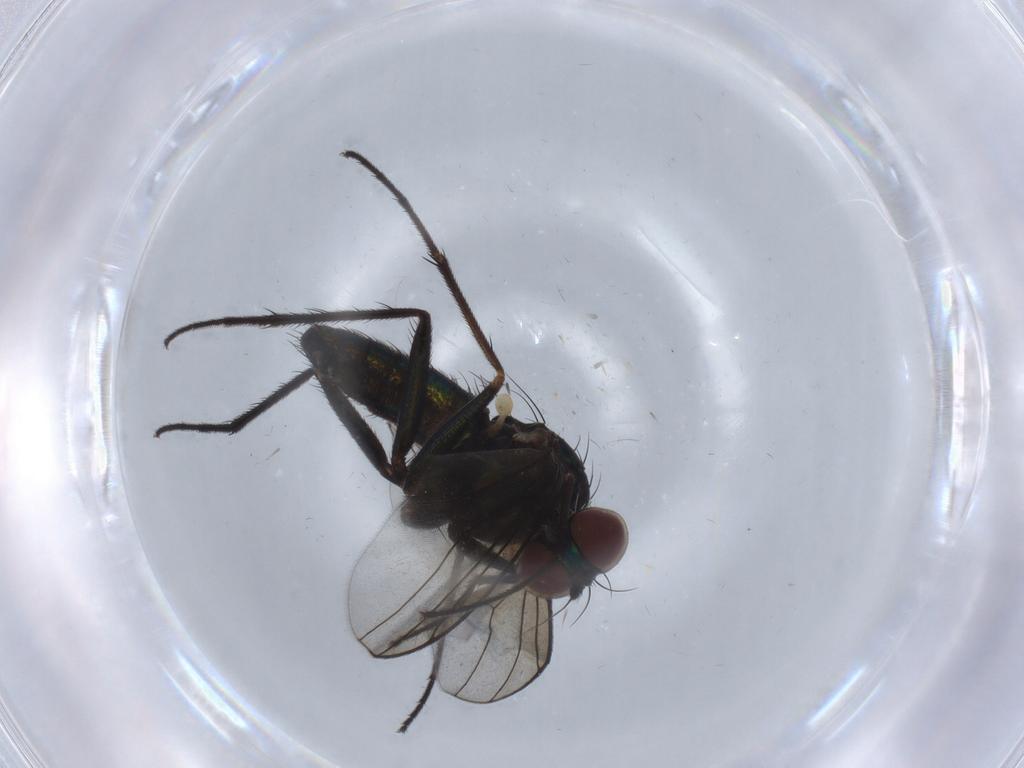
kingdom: Animalia
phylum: Arthropoda
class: Insecta
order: Diptera
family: Dolichopodidae
